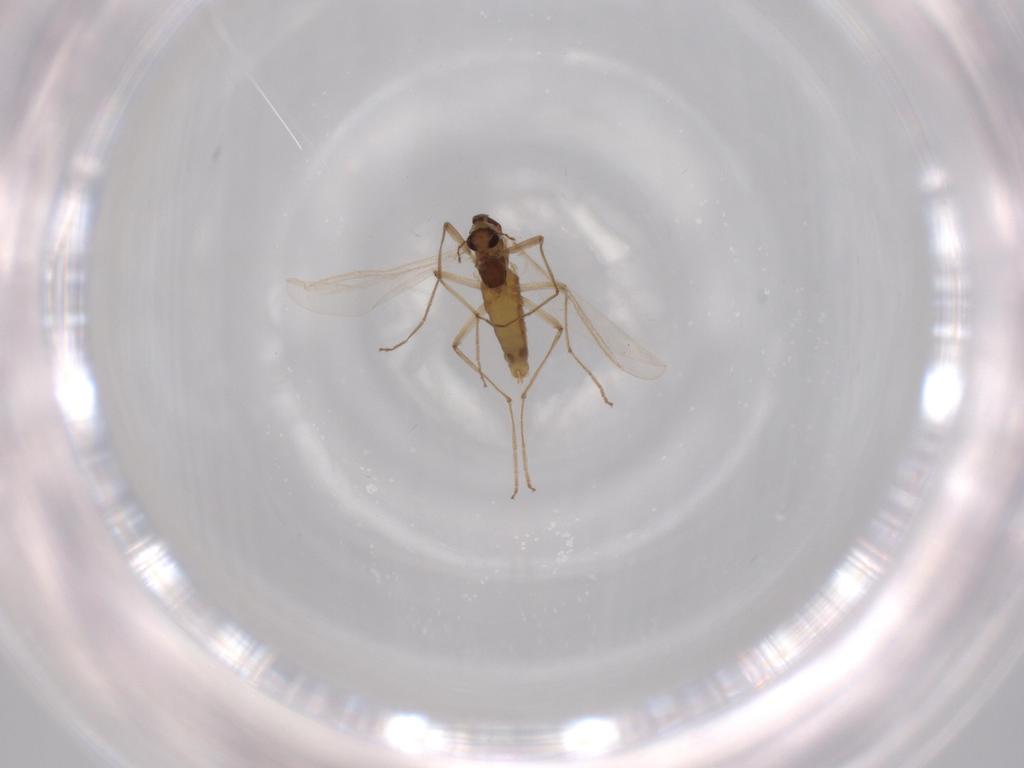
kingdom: Animalia
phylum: Arthropoda
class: Insecta
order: Diptera
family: Chironomidae
